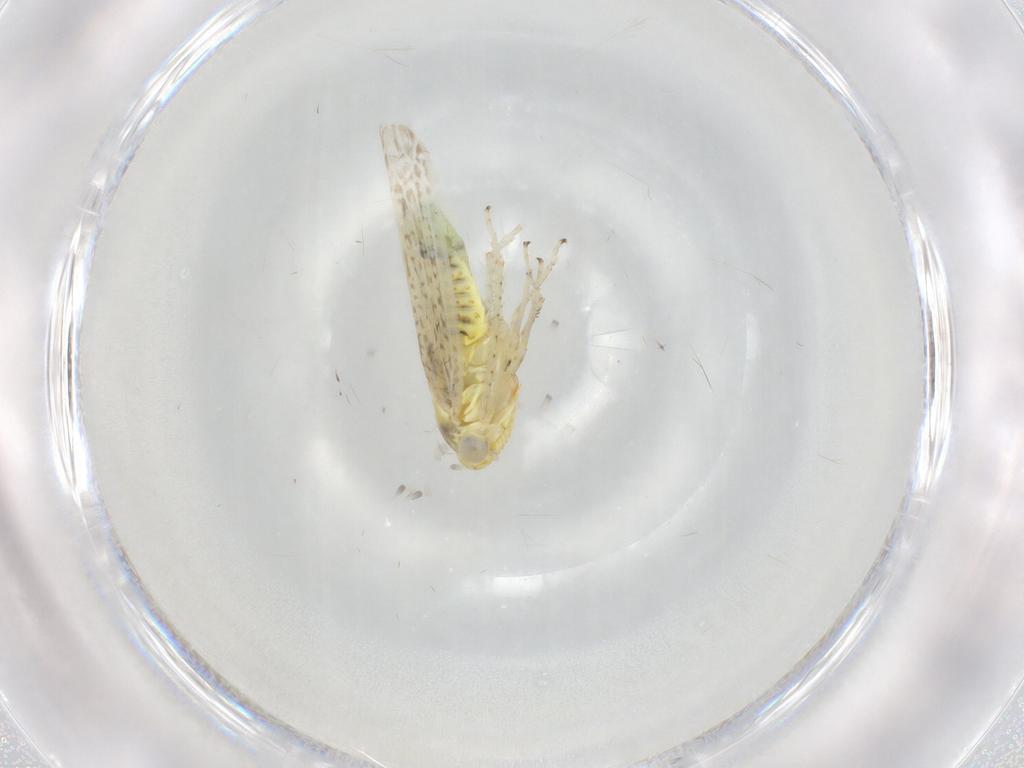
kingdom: Animalia
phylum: Arthropoda
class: Insecta
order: Hemiptera
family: Cicadellidae
